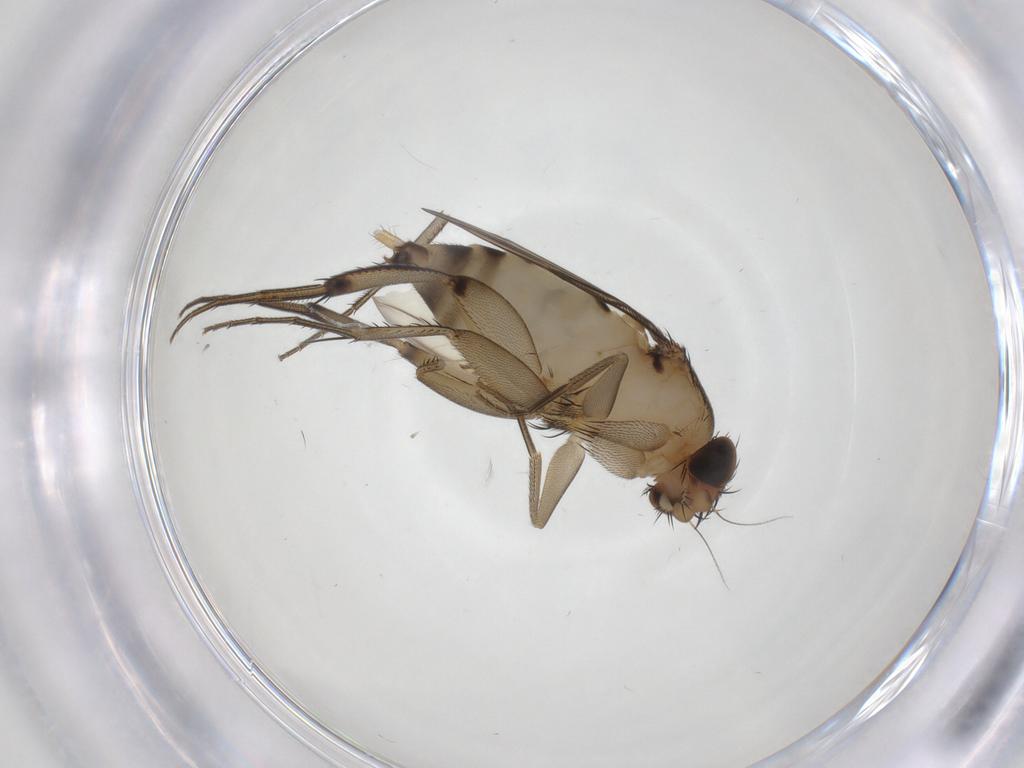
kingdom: Animalia
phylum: Arthropoda
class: Insecta
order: Diptera
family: Phoridae
